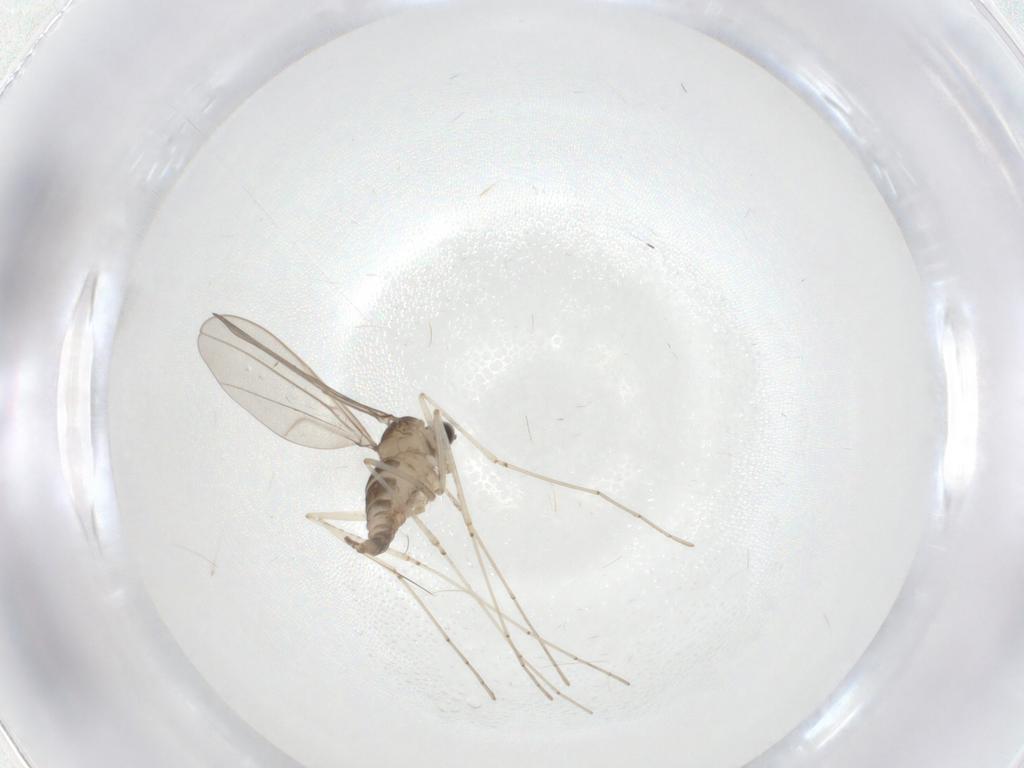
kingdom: Animalia
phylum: Arthropoda
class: Insecta
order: Diptera
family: Cecidomyiidae
